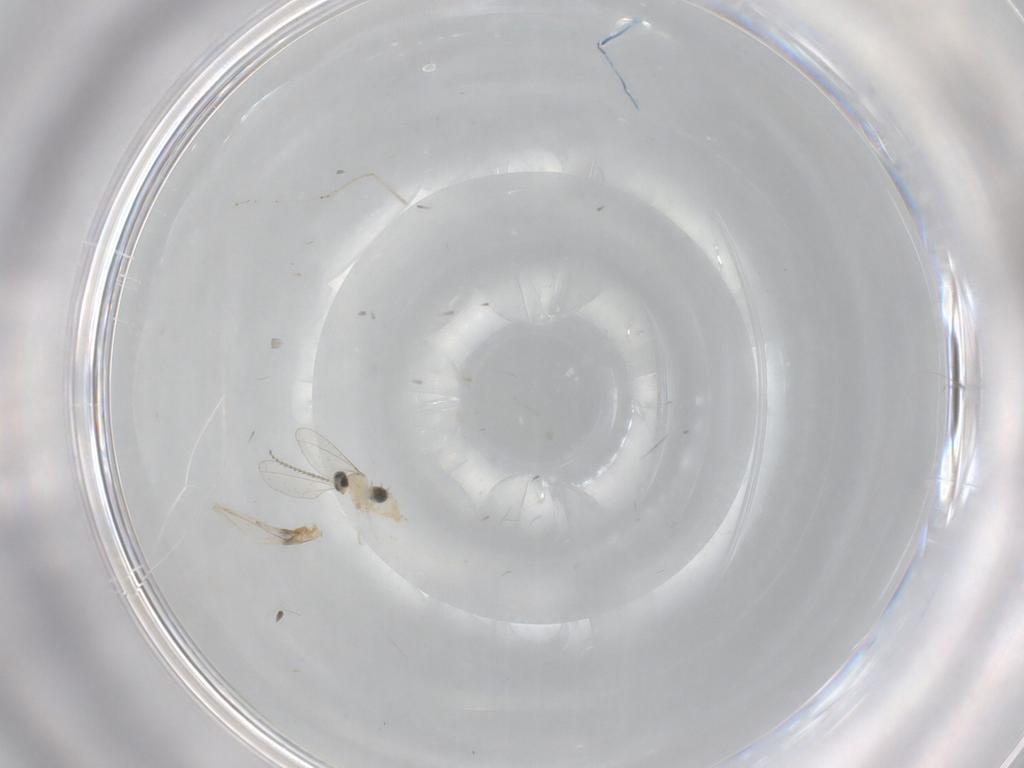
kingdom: Animalia
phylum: Arthropoda
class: Insecta
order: Diptera
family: Cecidomyiidae
